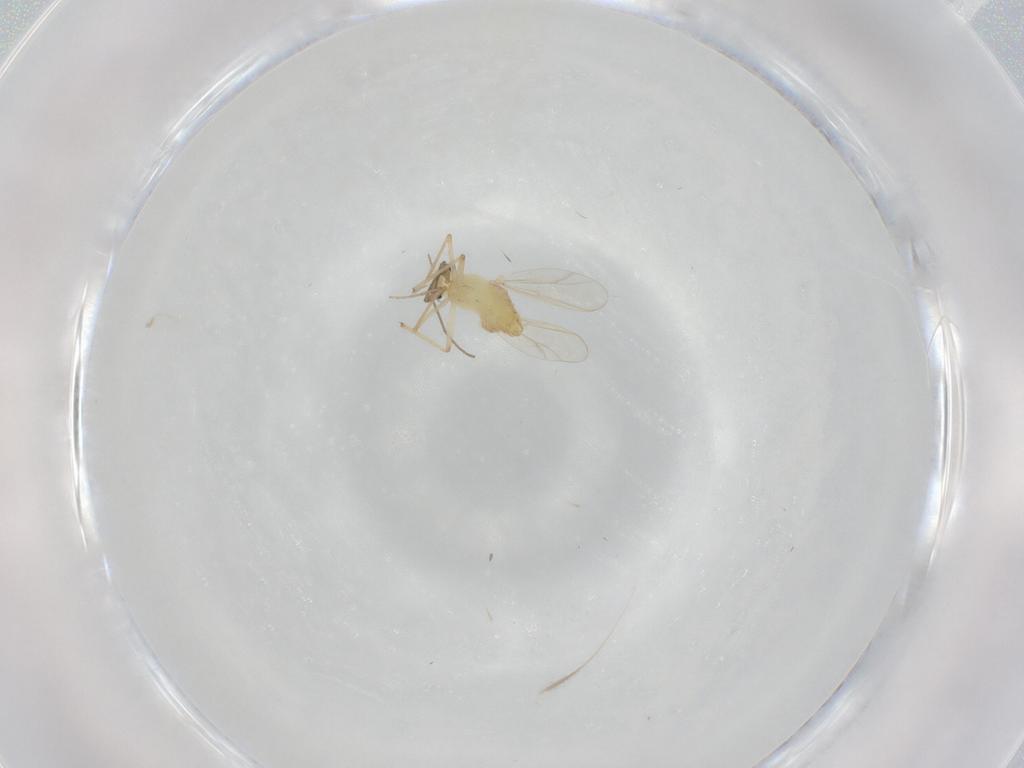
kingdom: Animalia
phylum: Arthropoda
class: Insecta
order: Diptera
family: Chironomidae
